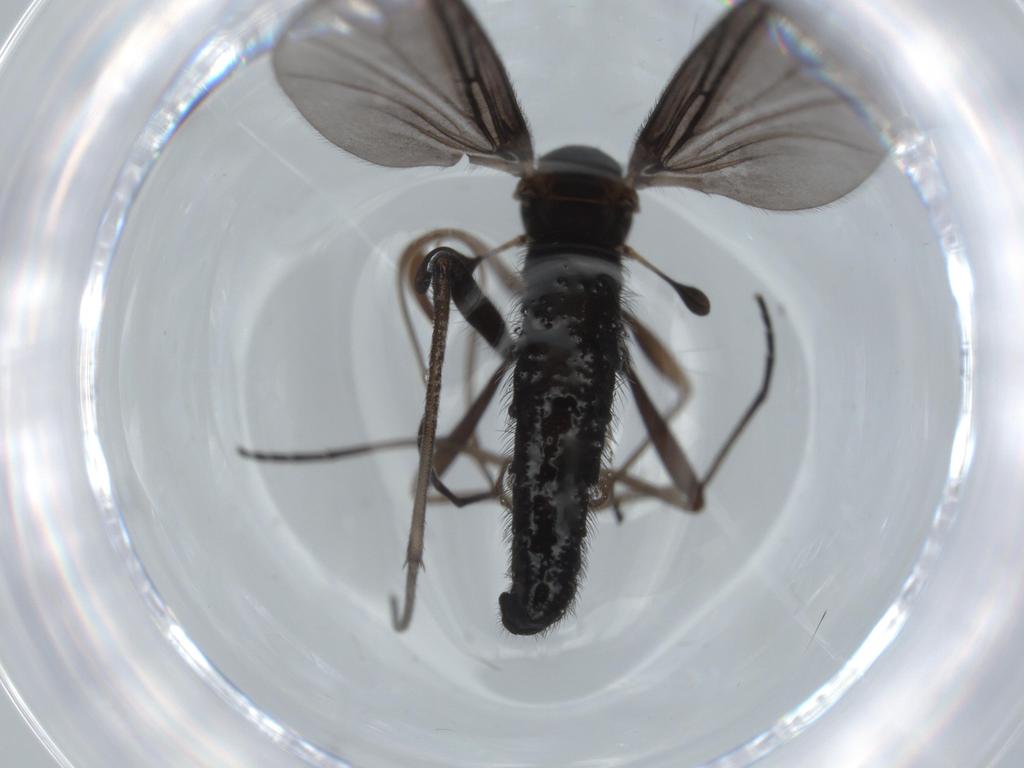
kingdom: Animalia
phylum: Arthropoda
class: Insecta
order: Diptera
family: Sciaridae
